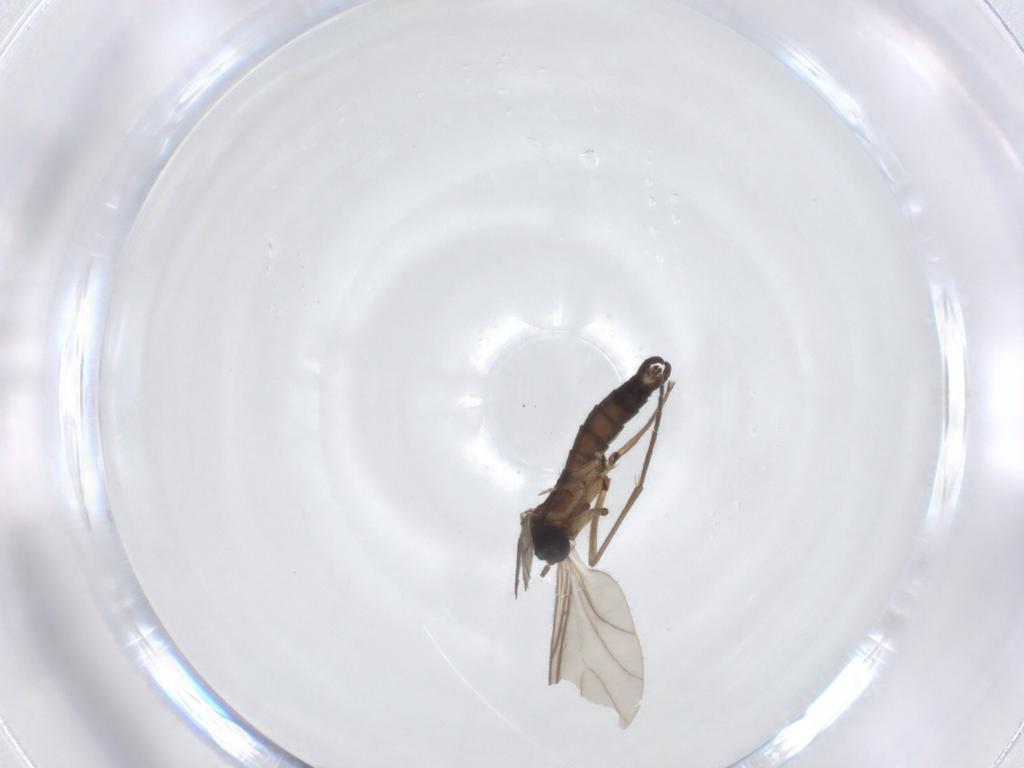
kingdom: Animalia
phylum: Arthropoda
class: Insecta
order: Diptera
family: Sciaridae
